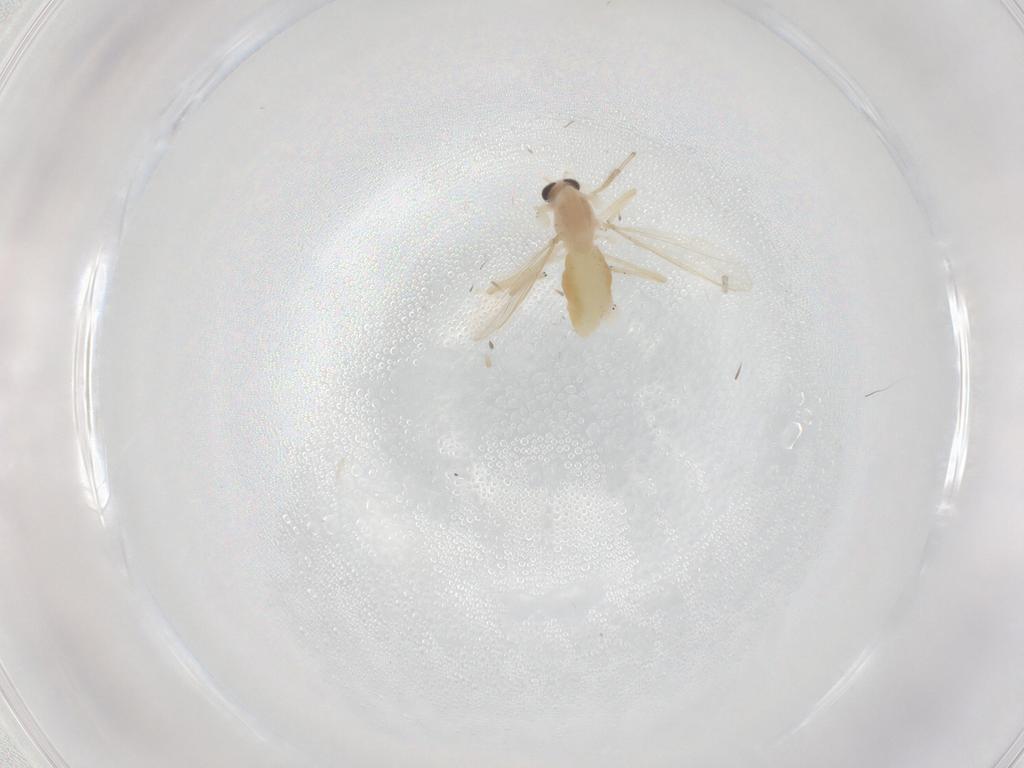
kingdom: Animalia
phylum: Arthropoda
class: Insecta
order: Diptera
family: Chironomidae
